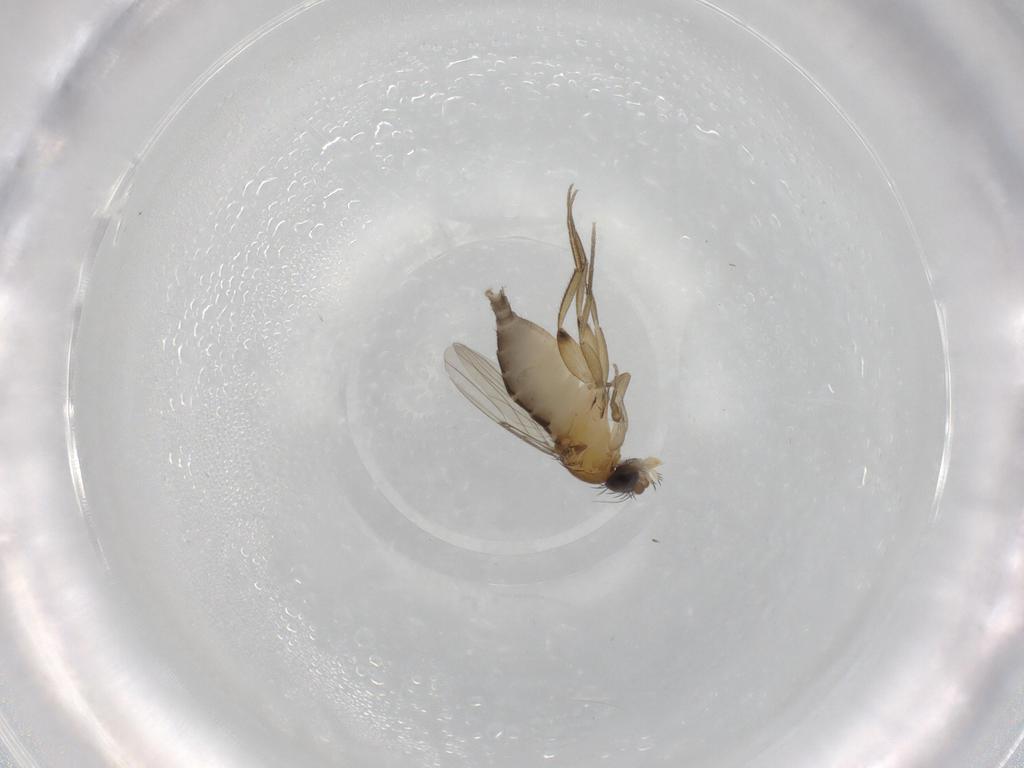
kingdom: Animalia
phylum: Arthropoda
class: Insecta
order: Diptera
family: Phoridae
